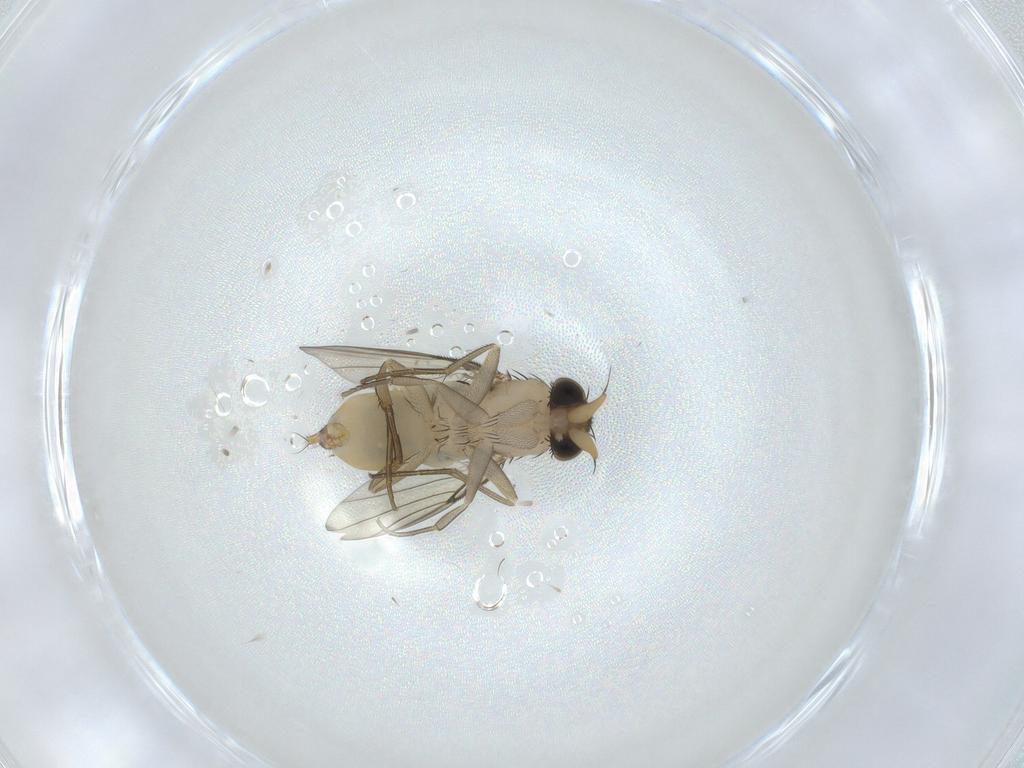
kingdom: Animalia
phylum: Arthropoda
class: Insecta
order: Diptera
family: Phoridae
